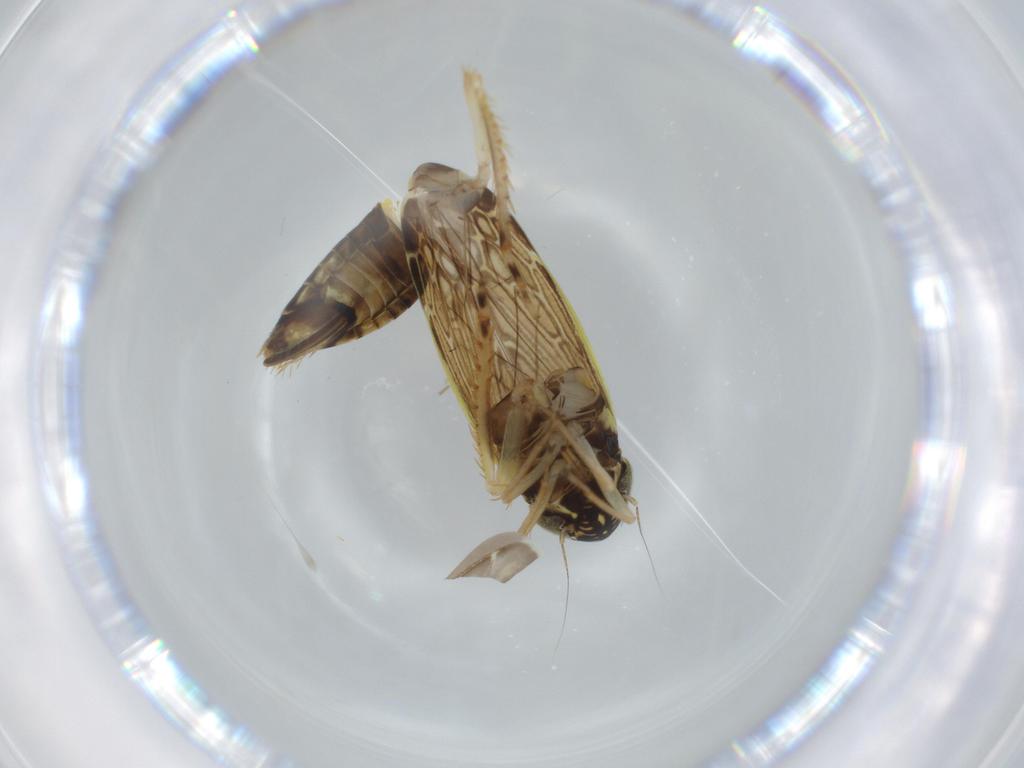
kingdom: Animalia
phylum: Arthropoda
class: Insecta
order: Hemiptera
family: Cicadellidae
